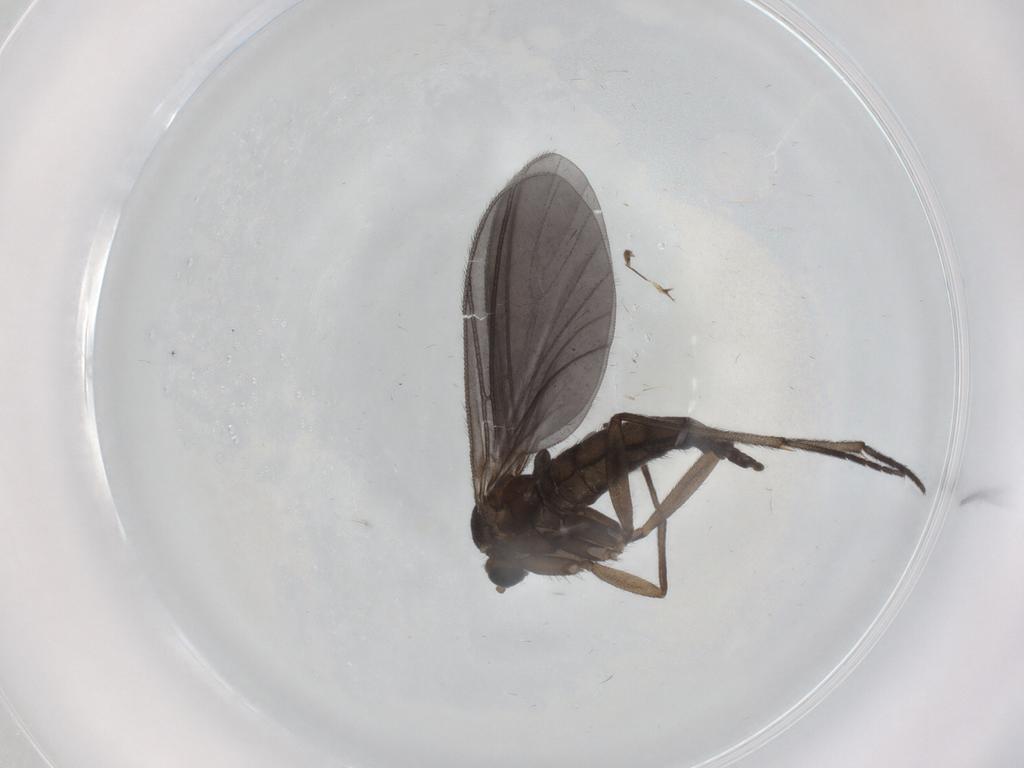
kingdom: Animalia
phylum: Arthropoda
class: Insecta
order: Diptera
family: Sciaridae
